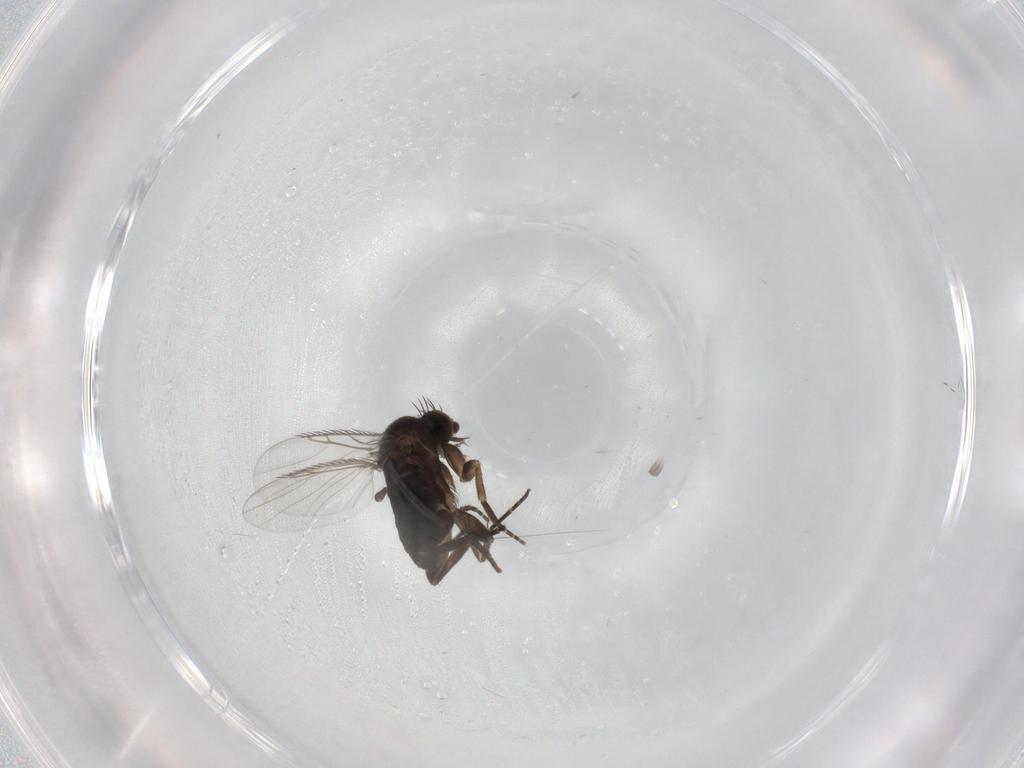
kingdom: Animalia
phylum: Arthropoda
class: Insecta
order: Diptera
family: Phoridae
